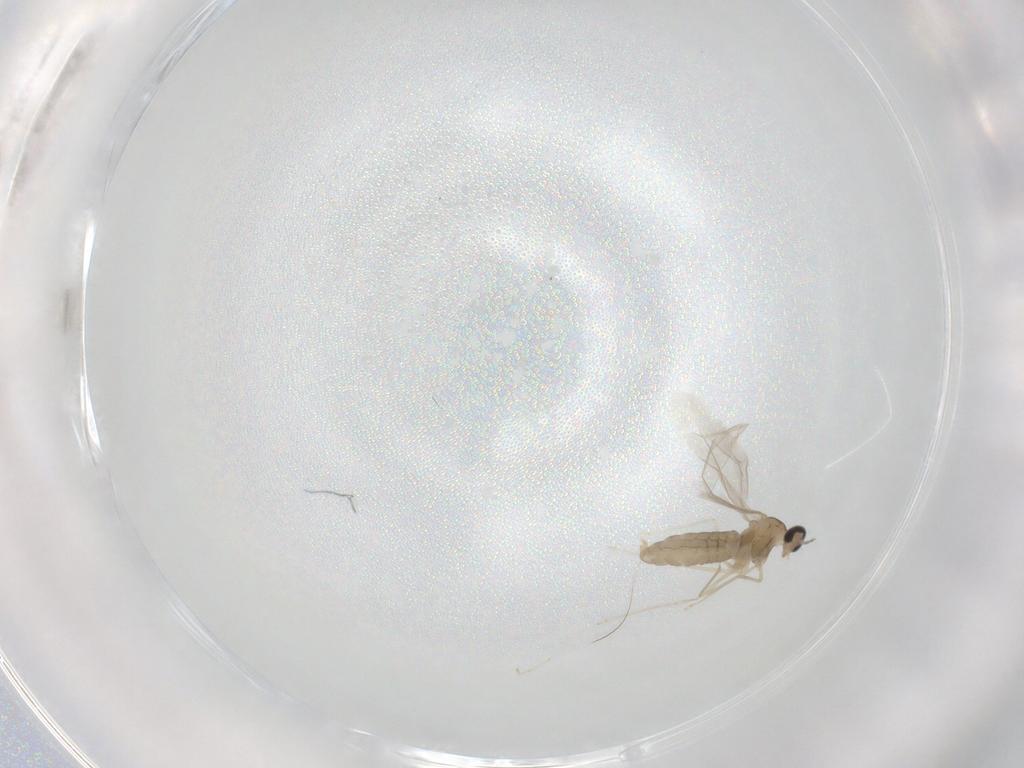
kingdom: Animalia
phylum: Arthropoda
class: Insecta
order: Diptera
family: Cecidomyiidae
